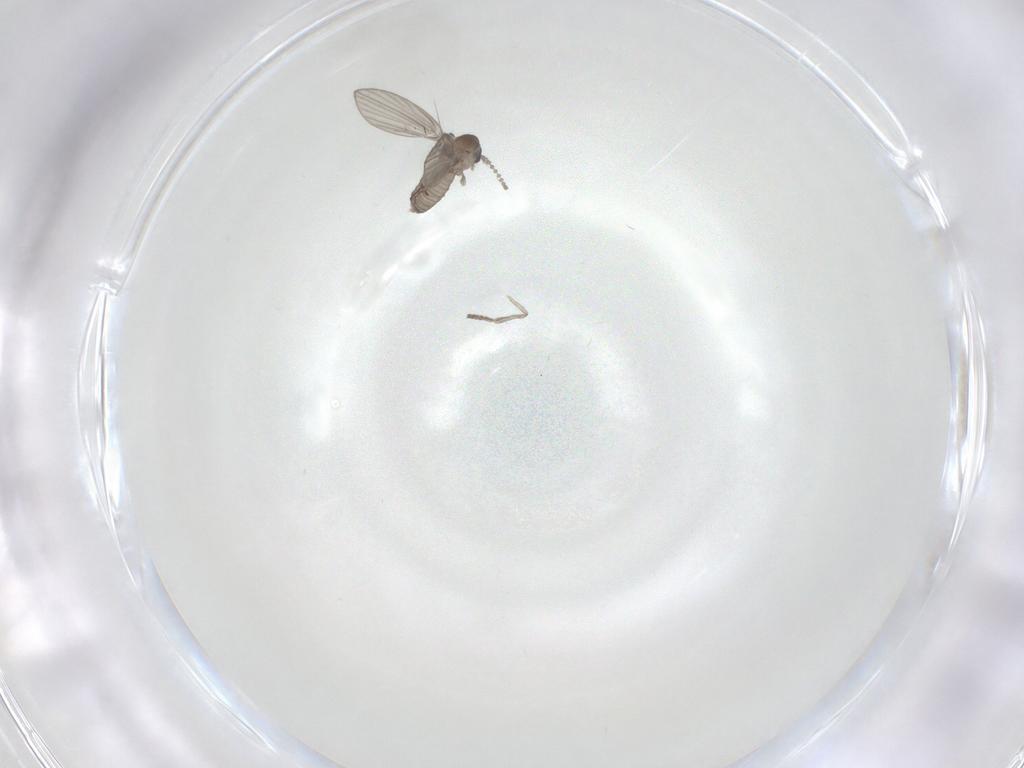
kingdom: Animalia
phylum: Arthropoda
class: Insecta
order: Diptera
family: Psychodidae
